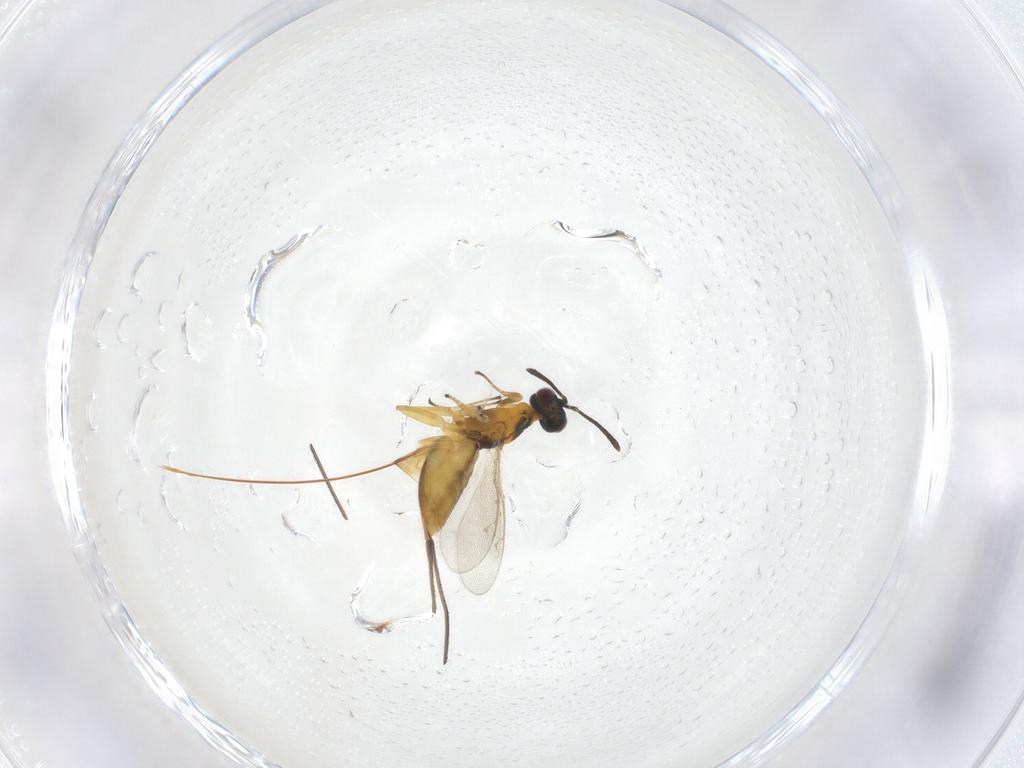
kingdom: Animalia
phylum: Arthropoda
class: Insecta
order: Hymenoptera
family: Eulophidae
